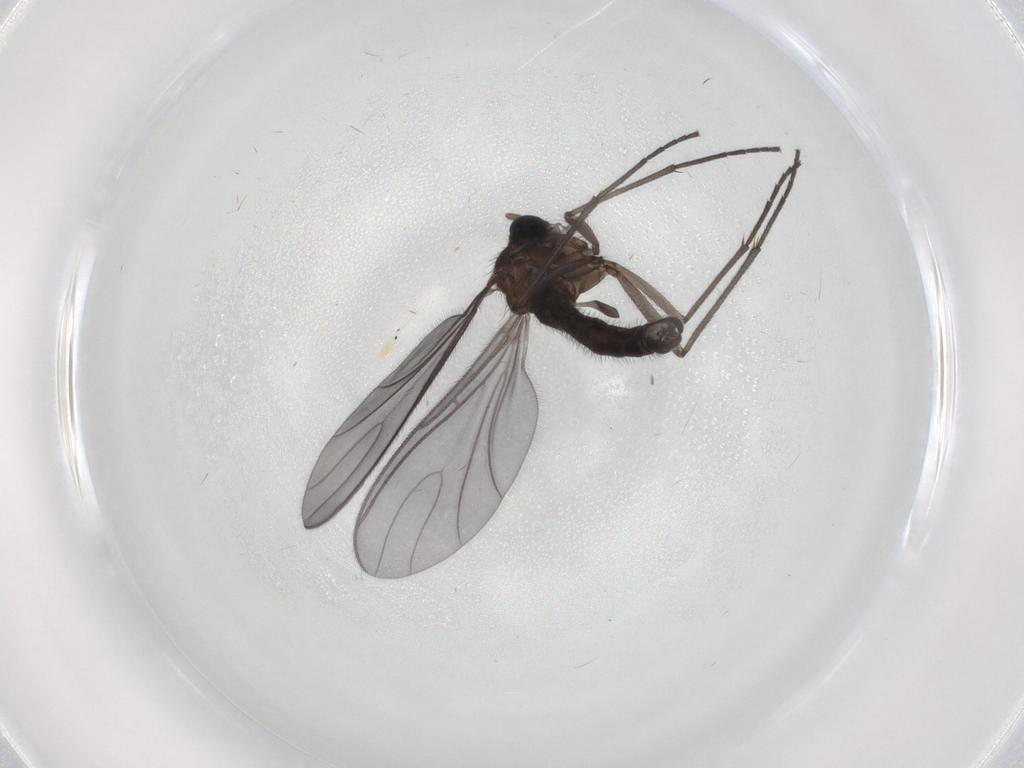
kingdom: Animalia
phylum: Arthropoda
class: Insecta
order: Diptera
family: Sciaridae
